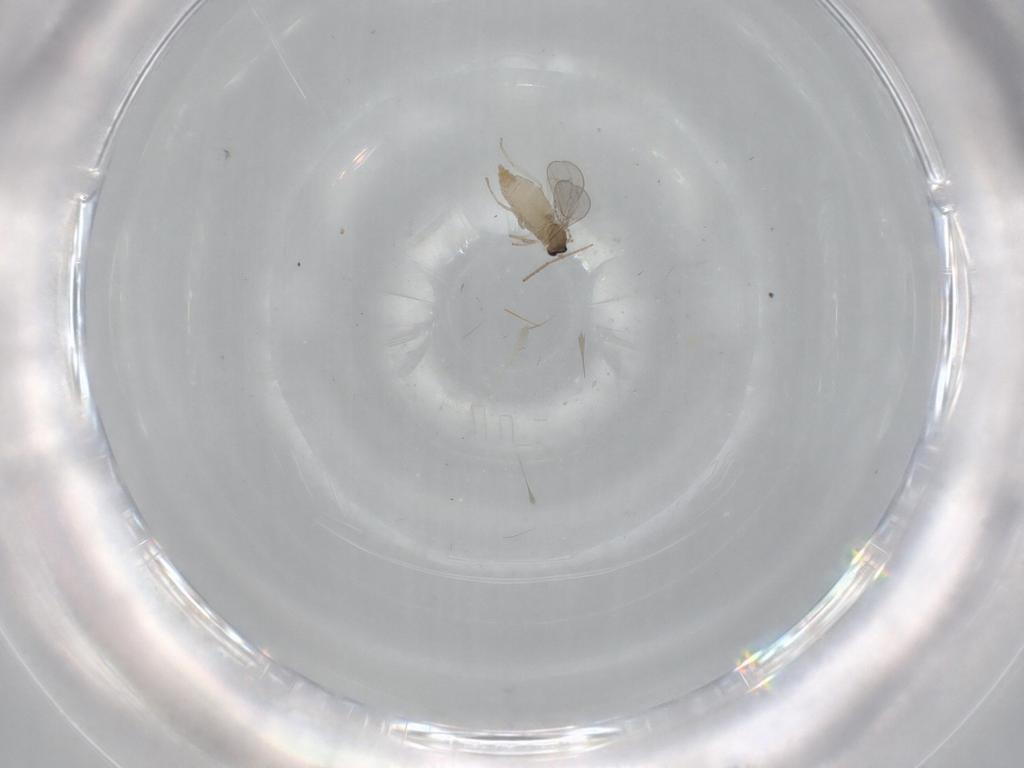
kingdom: Animalia
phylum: Arthropoda
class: Insecta
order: Diptera
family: Cecidomyiidae
